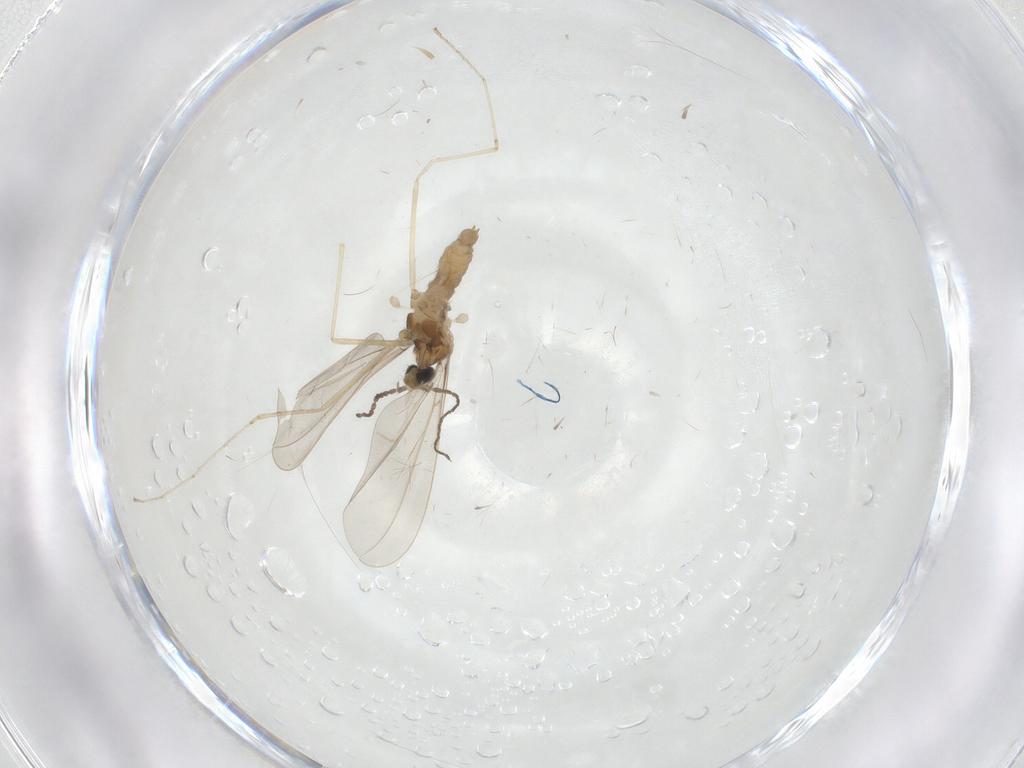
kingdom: Animalia
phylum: Arthropoda
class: Insecta
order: Diptera
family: Cecidomyiidae
